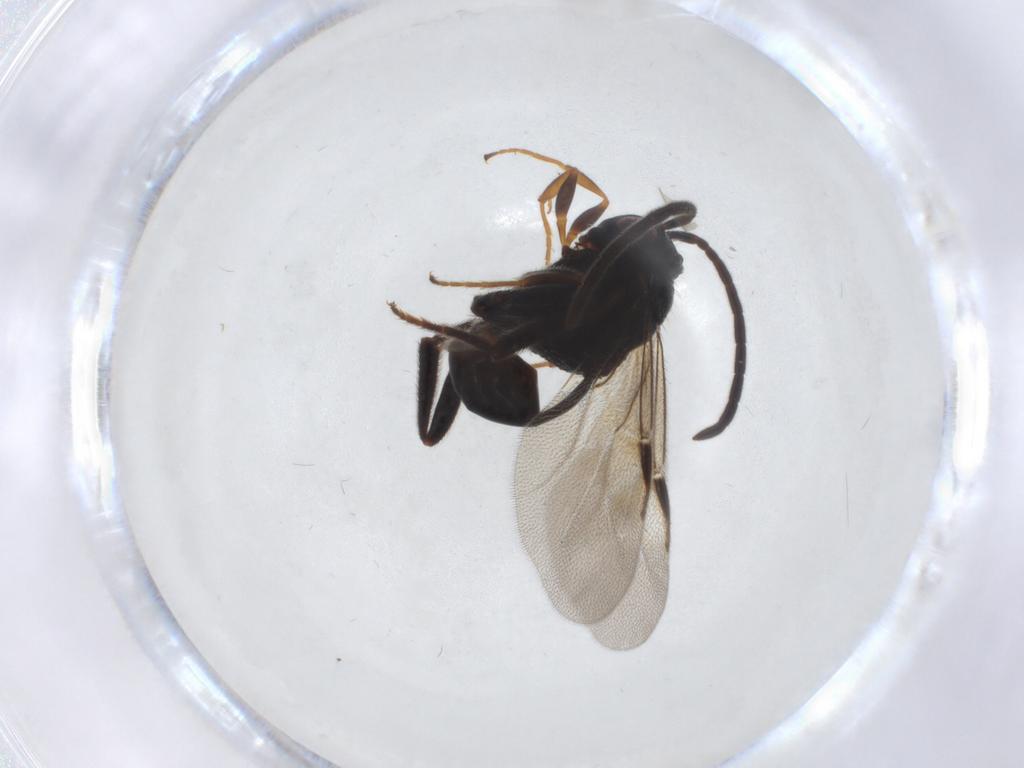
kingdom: Animalia
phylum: Arthropoda
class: Insecta
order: Hymenoptera
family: Evaniidae
